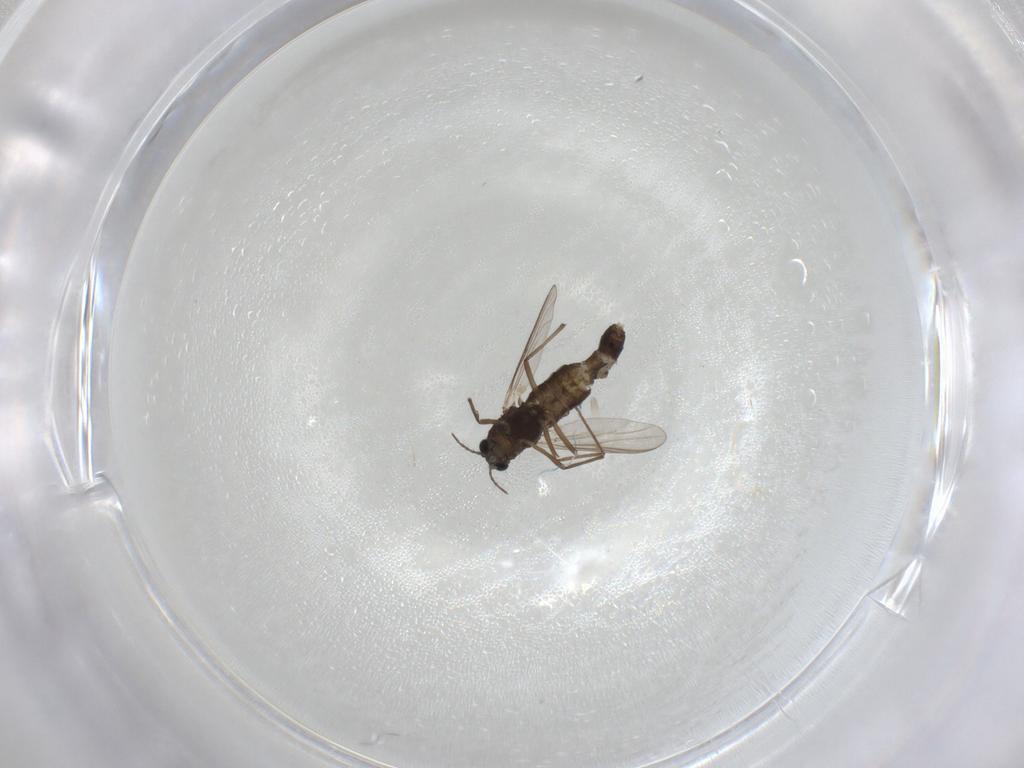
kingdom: Animalia
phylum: Arthropoda
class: Insecta
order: Diptera
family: Chironomidae
